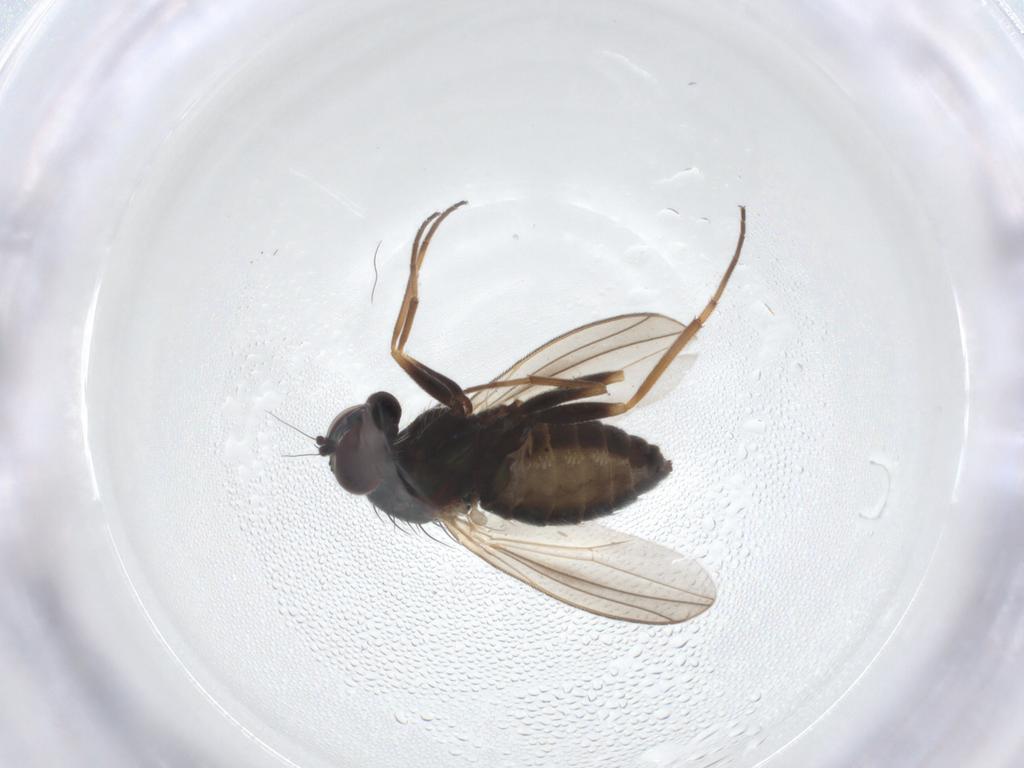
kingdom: Animalia
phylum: Arthropoda
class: Insecta
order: Diptera
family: Dolichopodidae
